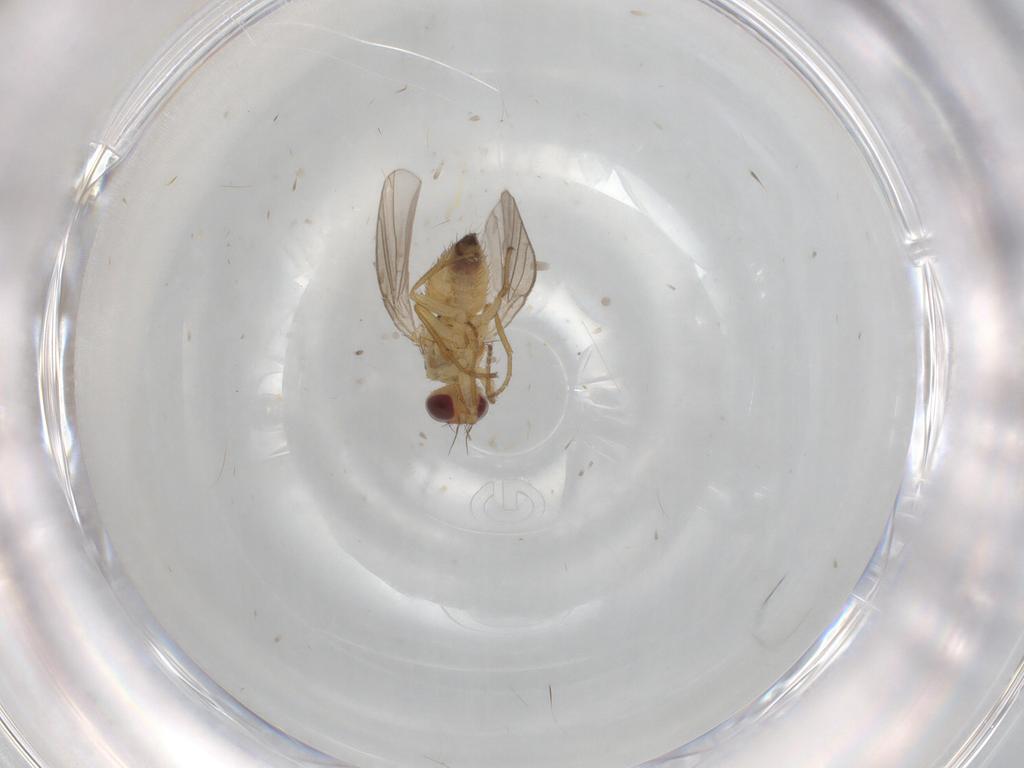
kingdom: Animalia
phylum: Arthropoda
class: Insecta
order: Diptera
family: Agromyzidae
